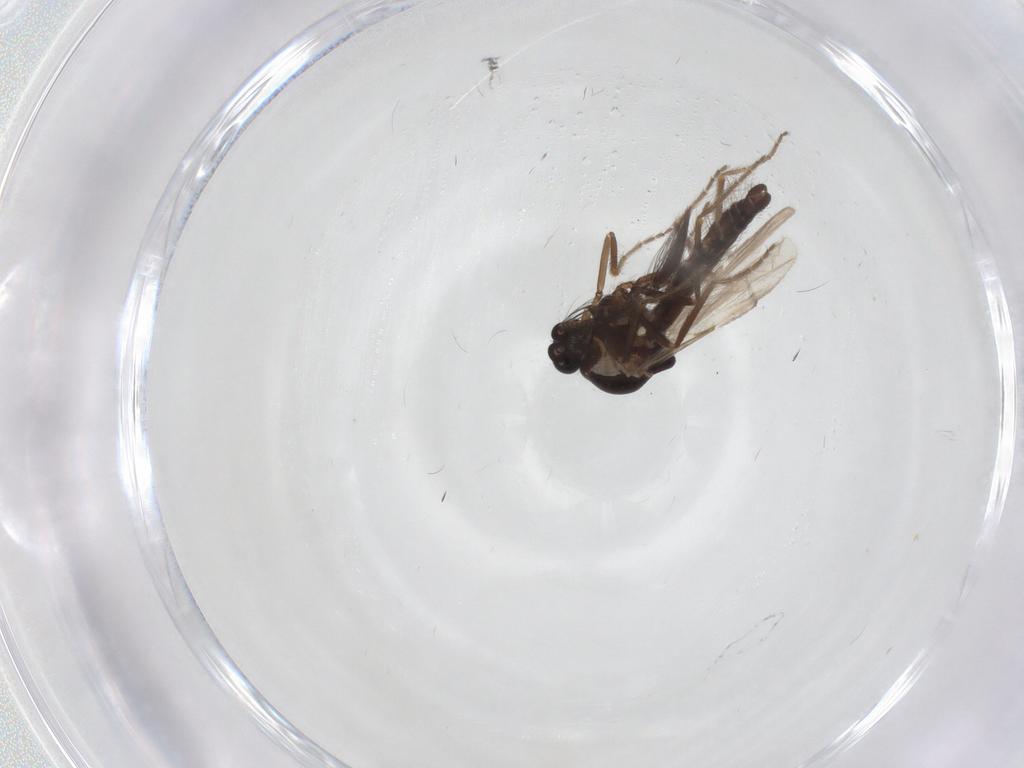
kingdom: Animalia
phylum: Arthropoda
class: Insecta
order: Diptera
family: Ceratopogonidae
